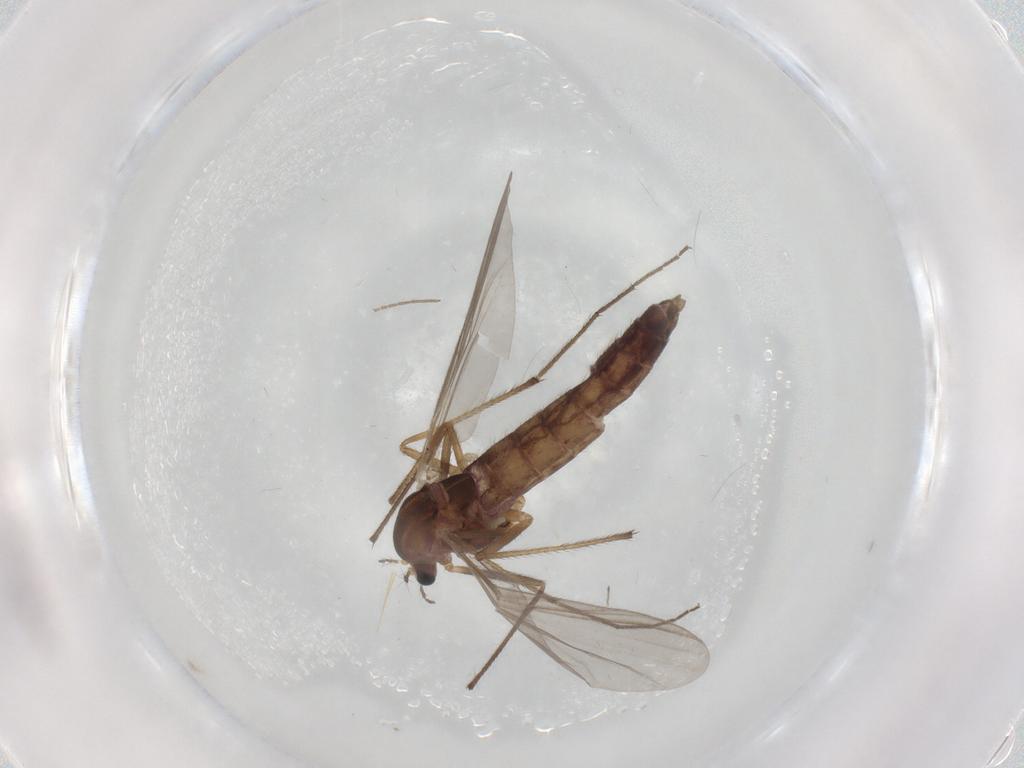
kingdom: Animalia
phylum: Arthropoda
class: Insecta
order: Diptera
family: Chironomidae
